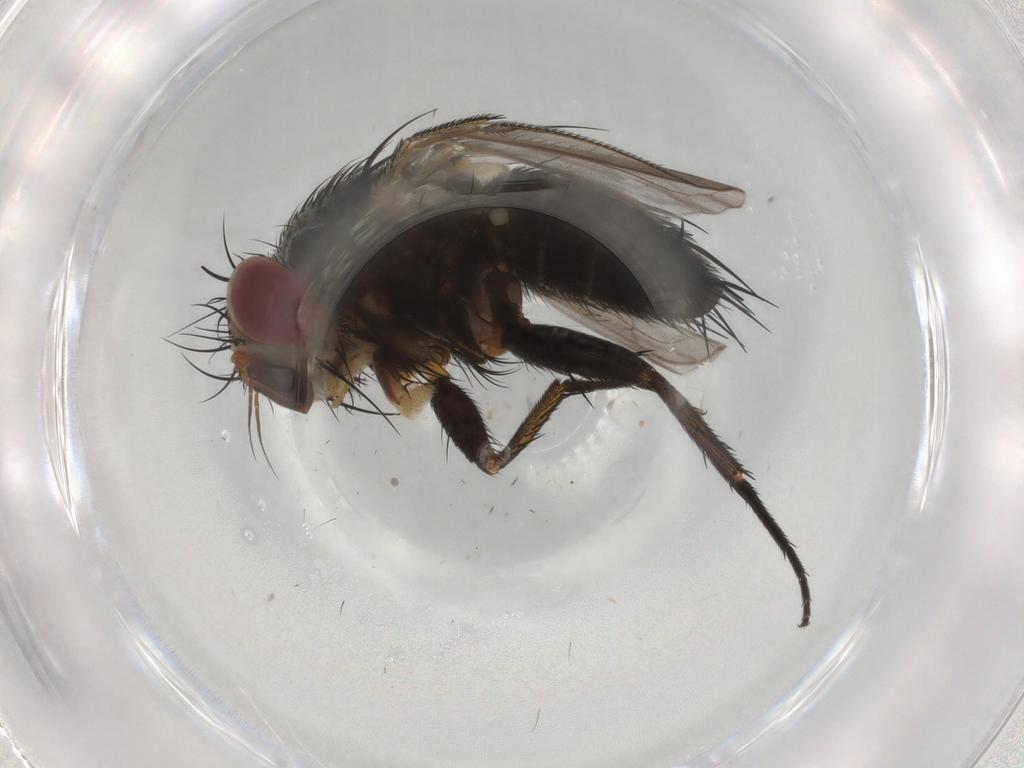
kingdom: Animalia
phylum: Arthropoda
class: Insecta
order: Diptera
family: Tachinidae
